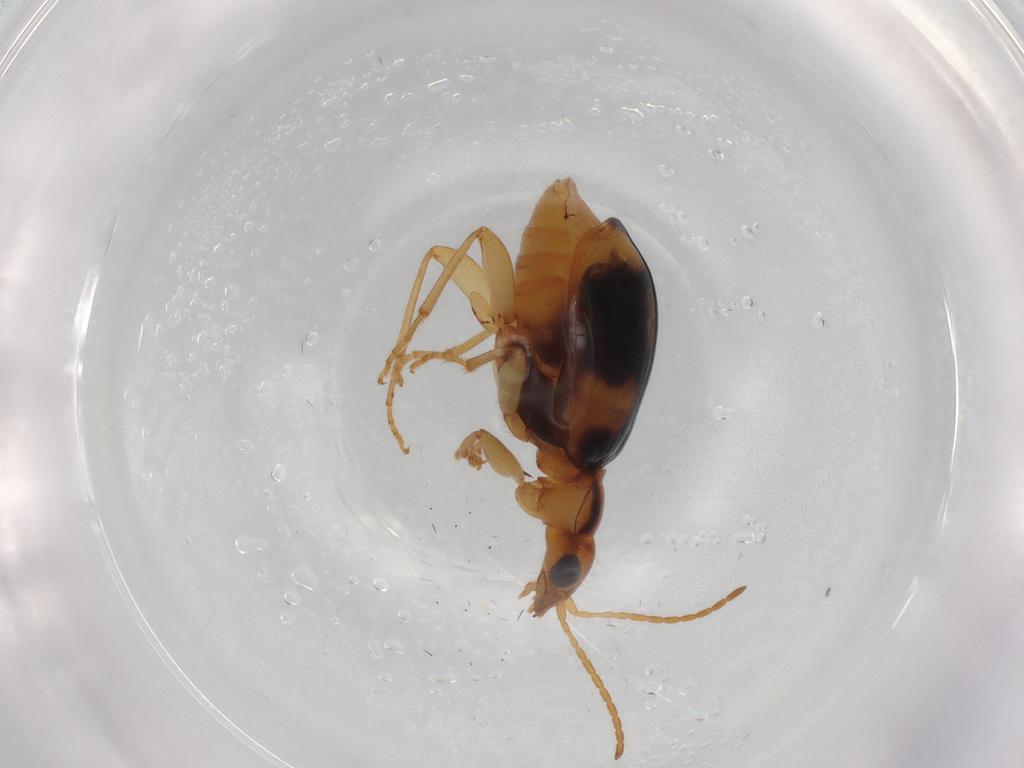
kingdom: Animalia
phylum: Arthropoda
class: Insecta
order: Coleoptera
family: Carabidae
